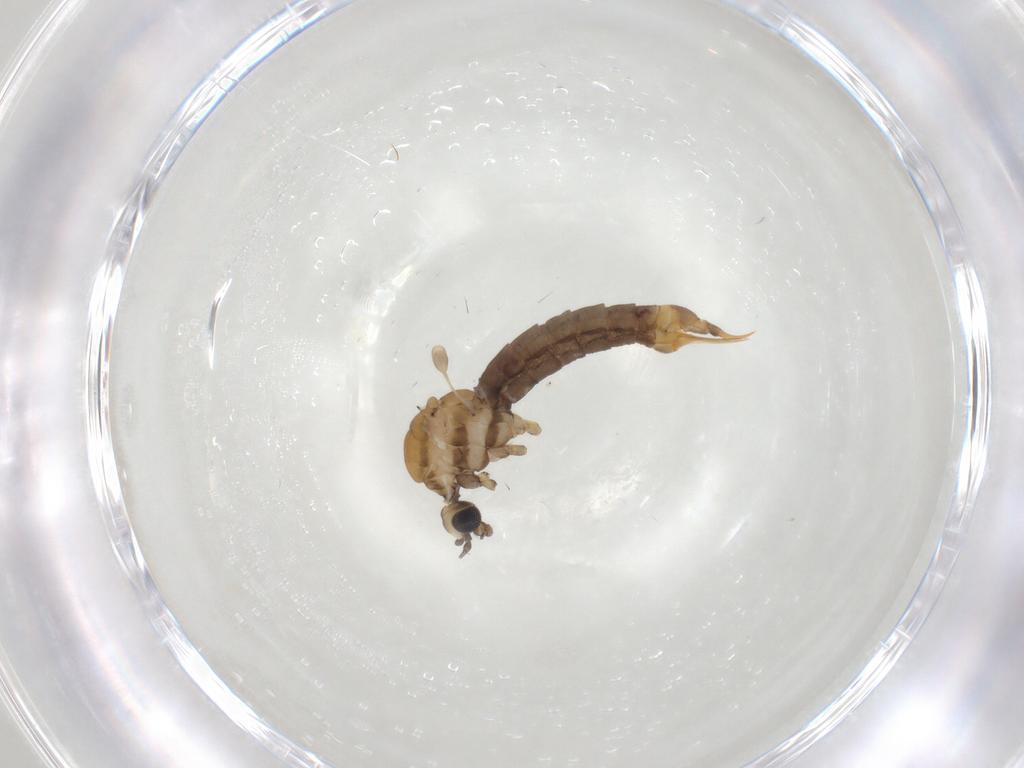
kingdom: Animalia
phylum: Arthropoda
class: Insecta
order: Diptera
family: Limoniidae
